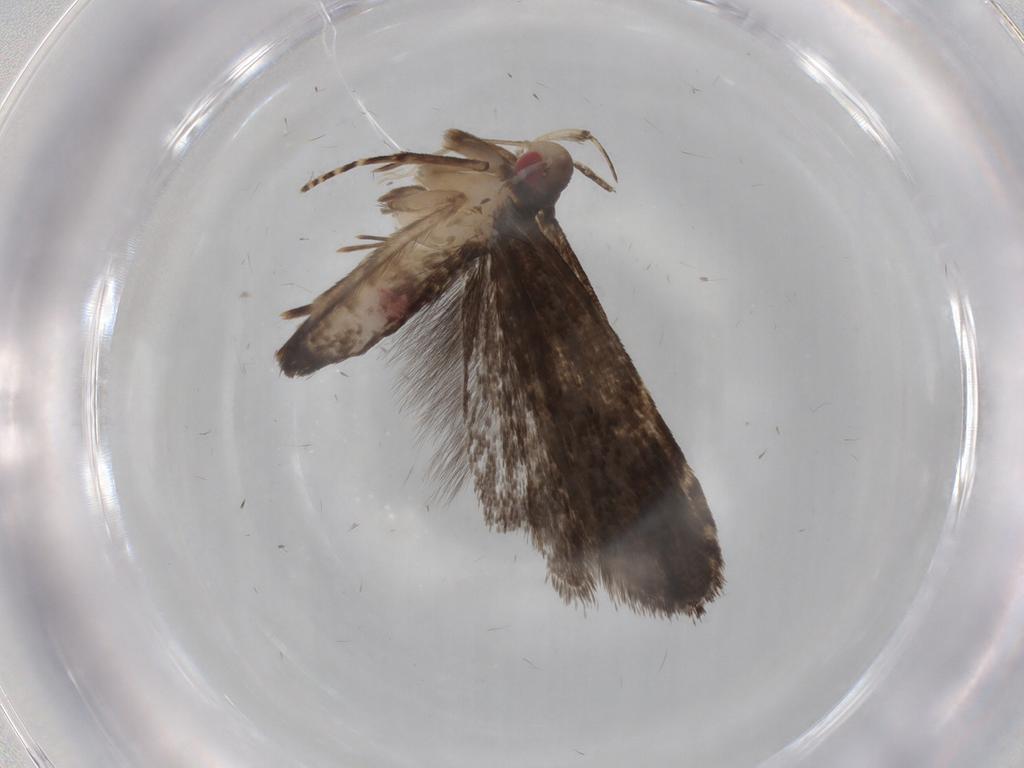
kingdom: Animalia
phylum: Arthropoda
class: Insecta
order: Lepidoptera
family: Gelechiidae
